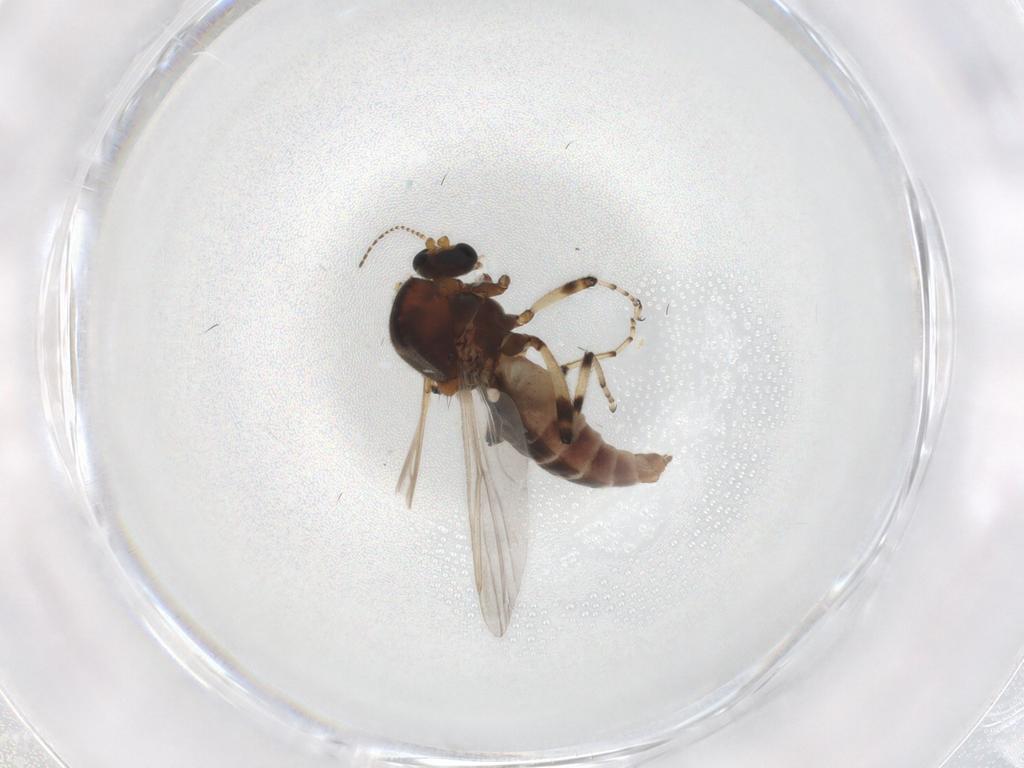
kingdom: Animalia
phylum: Arthropoda
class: Insecta
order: Diptera
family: Ceratopogonidae
